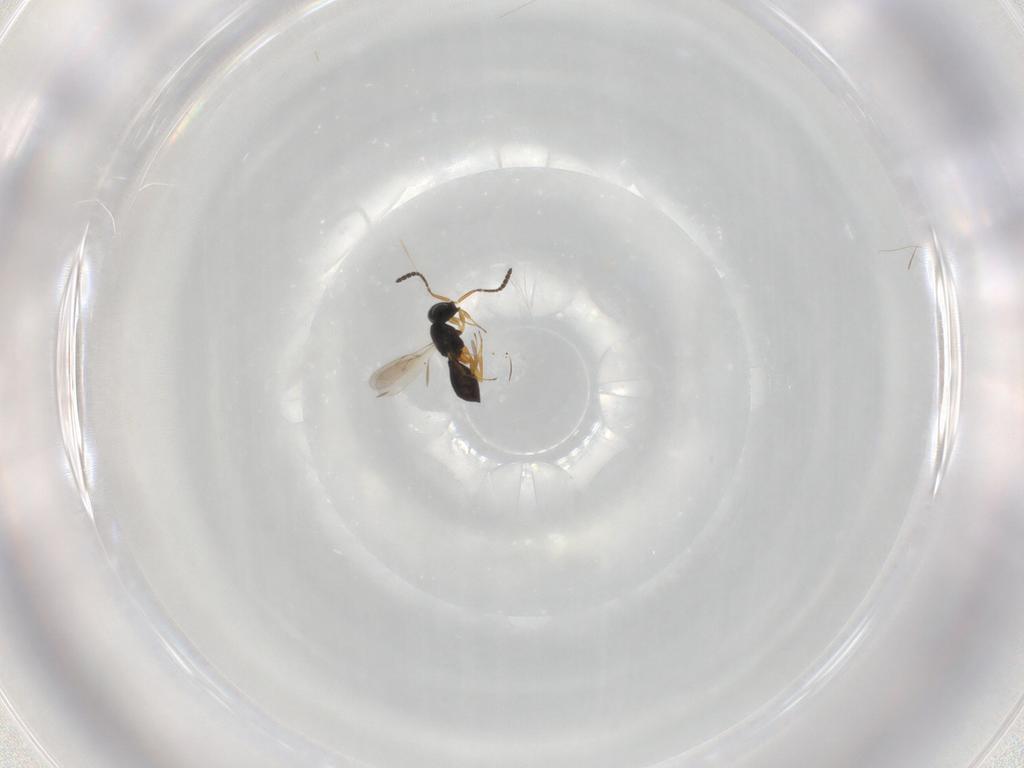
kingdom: Animalia
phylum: Arthropoda
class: Insecta
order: Hymenoptera
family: Scelionidae
